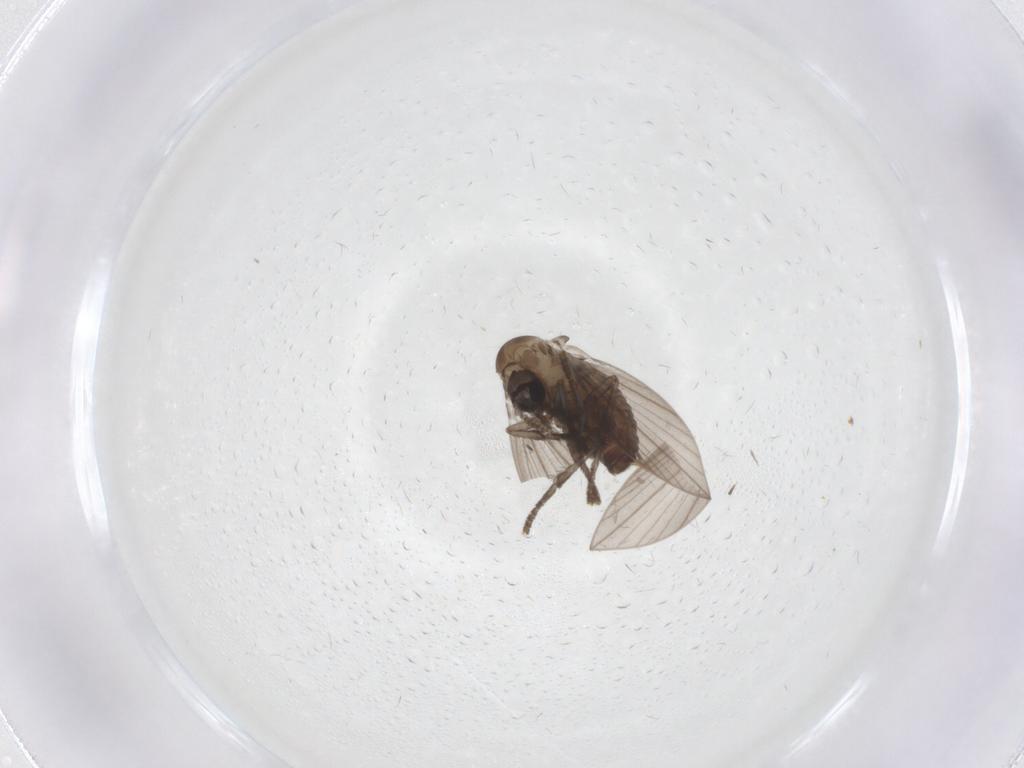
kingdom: Animalia
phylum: Arthropoda
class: Insecta
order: Diptera
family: Psychodidae
